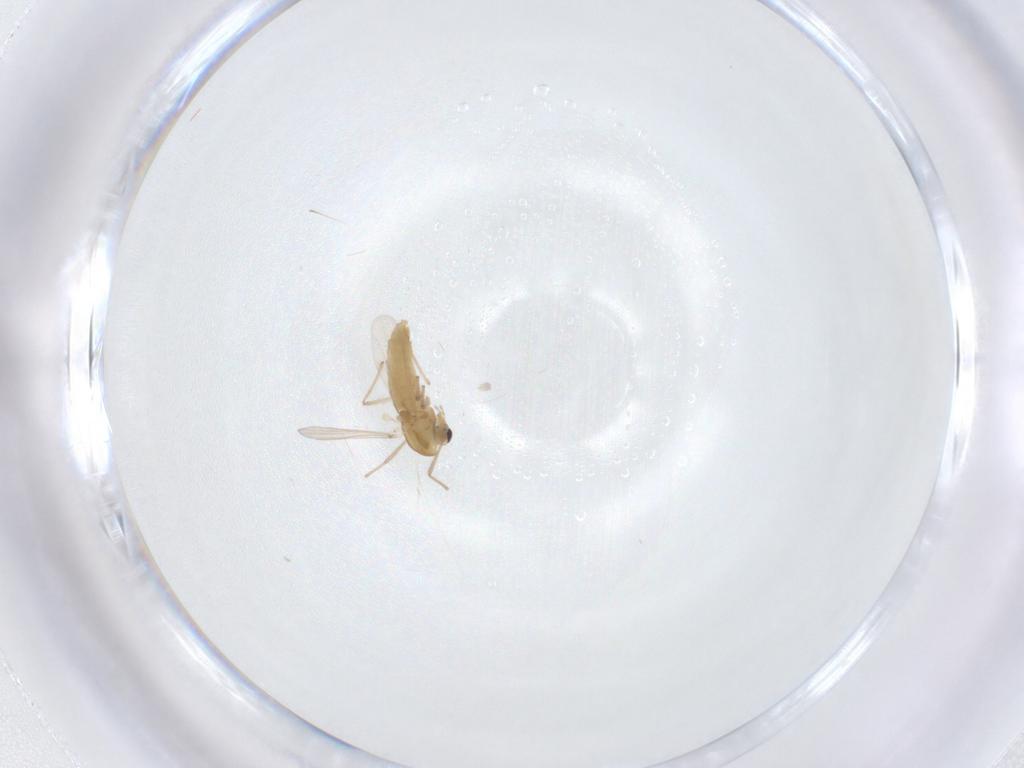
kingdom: Animalia
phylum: Arthropoda
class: Insecta
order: Diptera
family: Chironomidae
